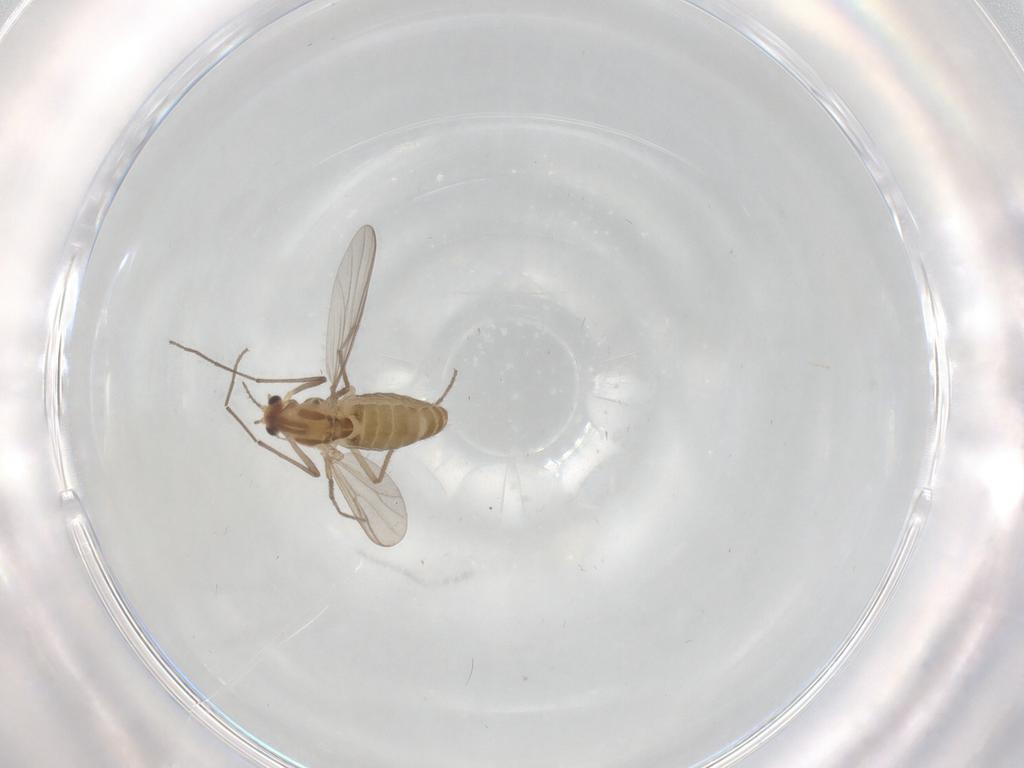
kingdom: Animalia
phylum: Arthropoda
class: Insecta
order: Diptera
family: Chironomidae
